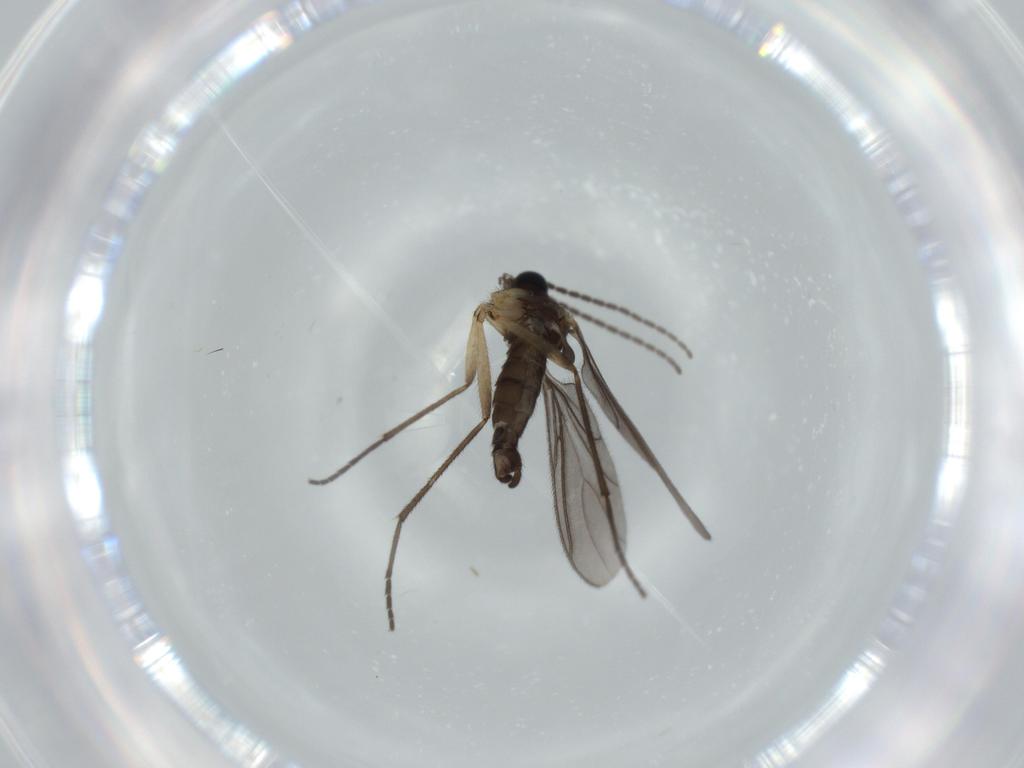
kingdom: Animalia
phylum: Arthropoda
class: Insecta
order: Diptera
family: Sciaridae
